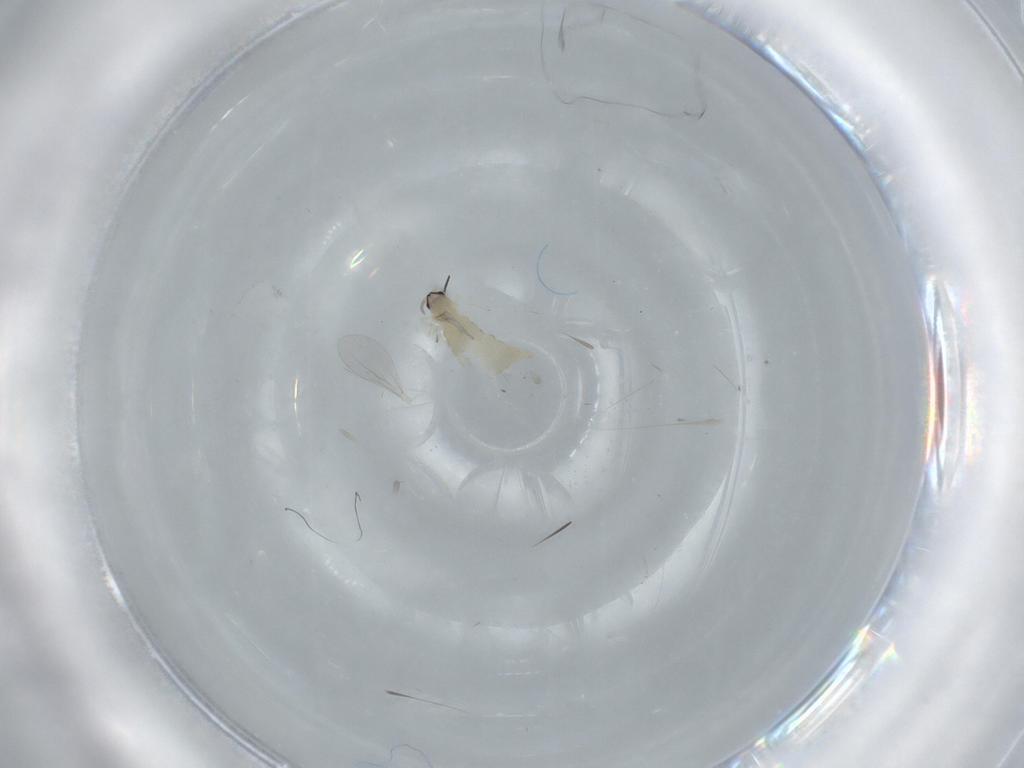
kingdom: Animalia
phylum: Arthropoda
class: Insecta
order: Diptera
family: Cecidomyiidae
